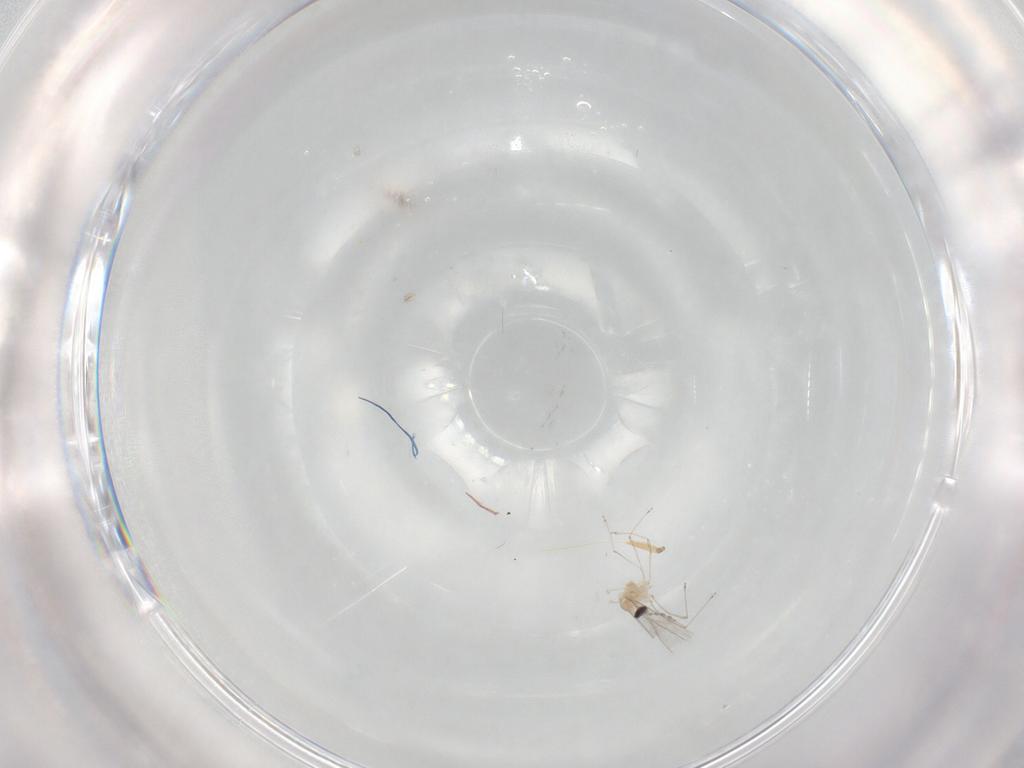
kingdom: Animalia
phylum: Arthropoda
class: Insecta
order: Diptera
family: Cecidomyiidae
